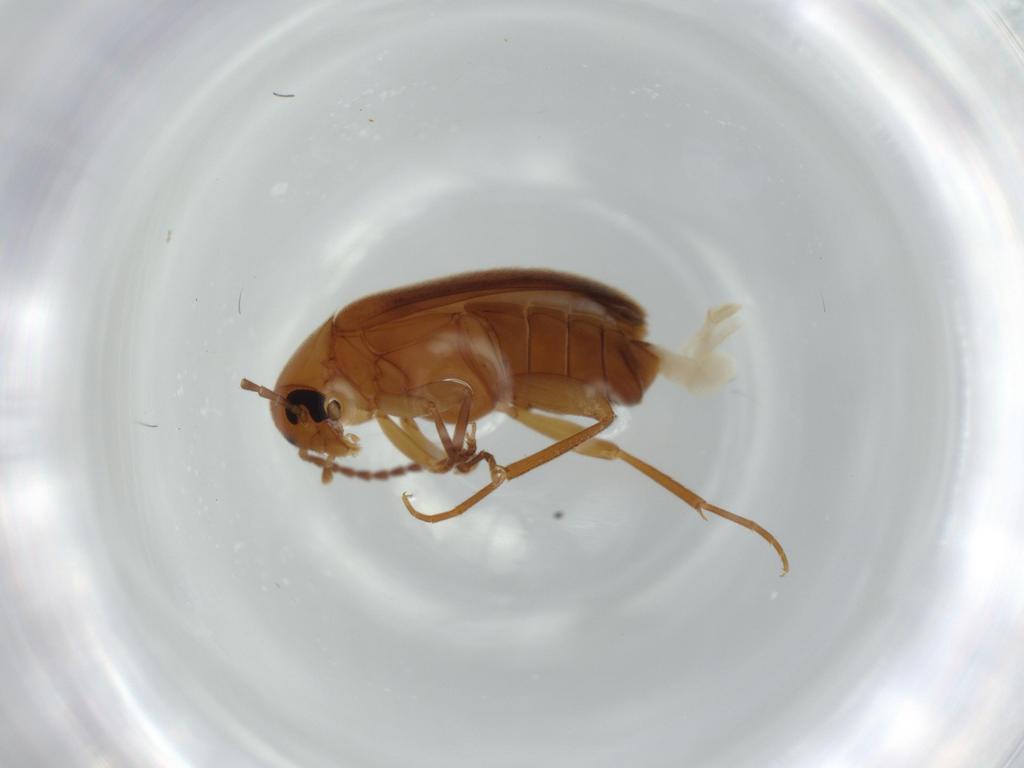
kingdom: Animalia
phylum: Arthropoda
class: Insecta
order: Coleoptera
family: Scraptiidae
